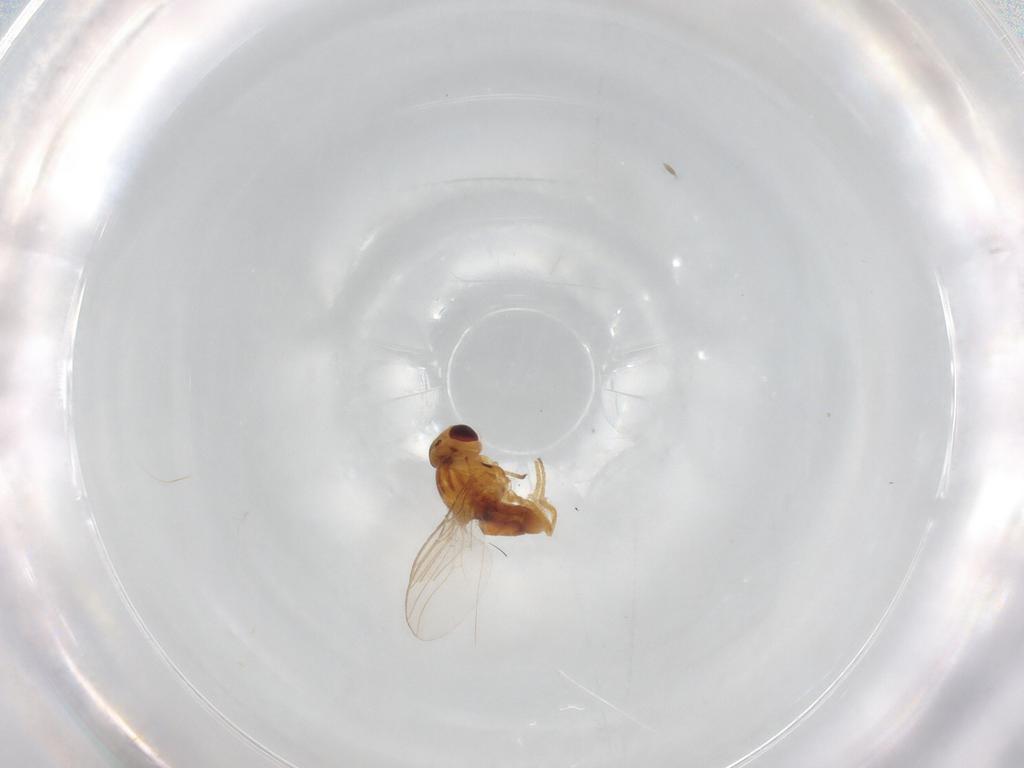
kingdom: Animalia
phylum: Arthropoda
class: Insecta
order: Diptera
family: Chloropidae
